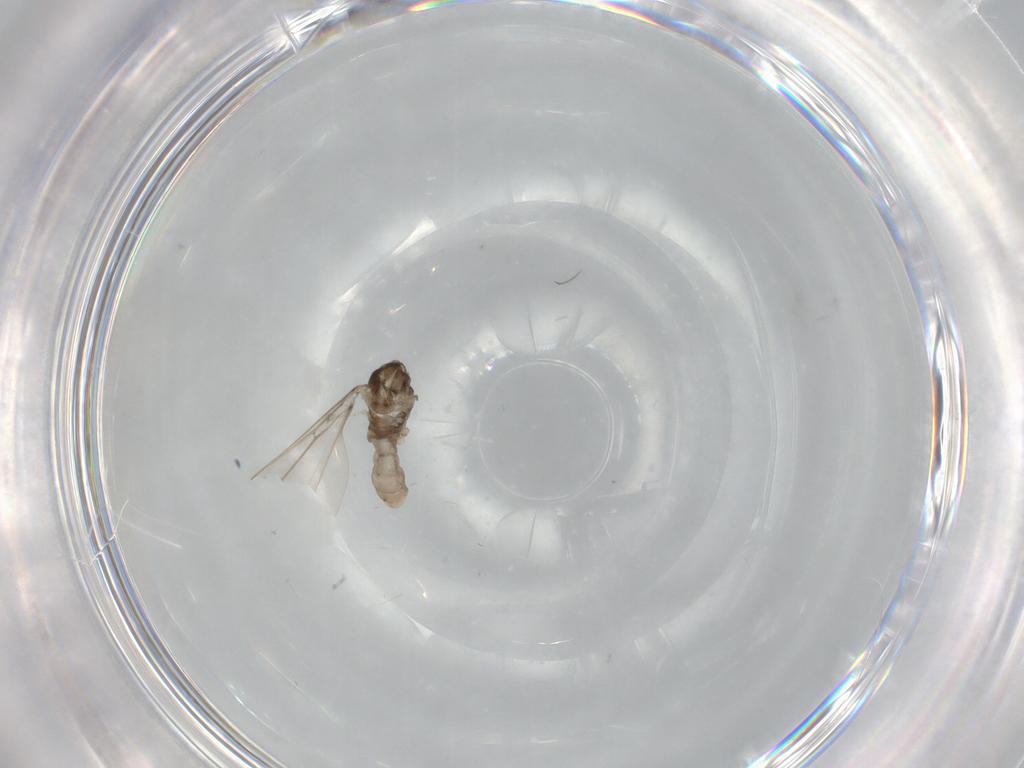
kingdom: Animalia
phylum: Arthropoda
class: Insecta
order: Diptera
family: Cecidomyiidae
